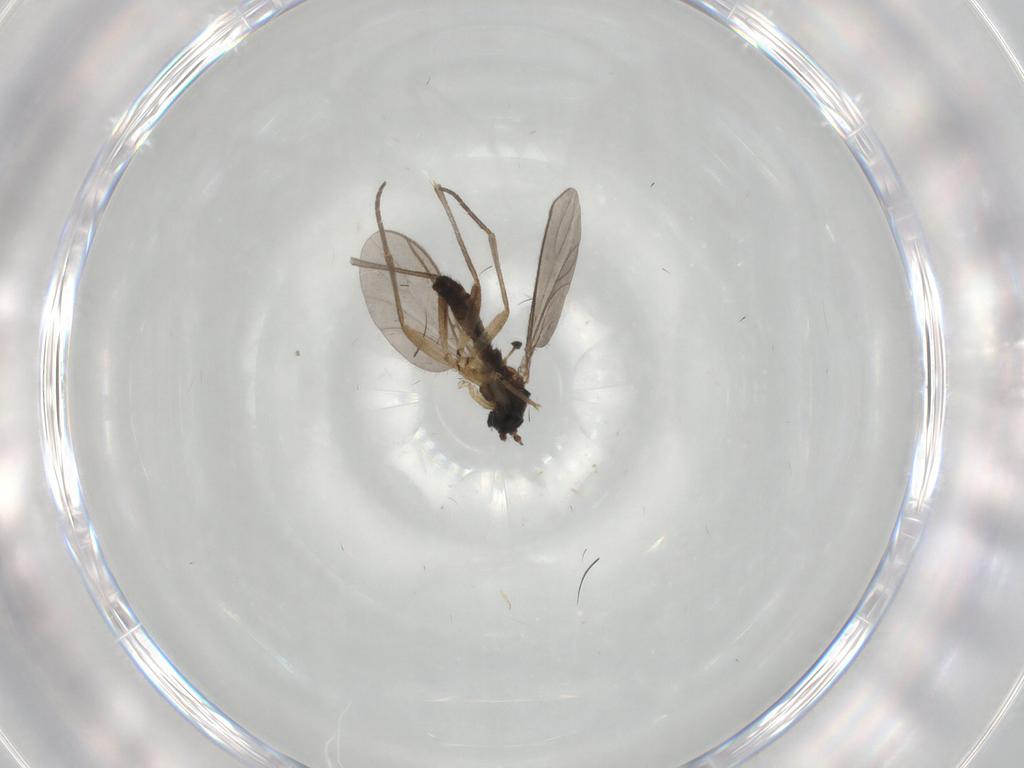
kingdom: Animalia
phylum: Arthropoda
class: Insecta
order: Diptera
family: Sciaridae
